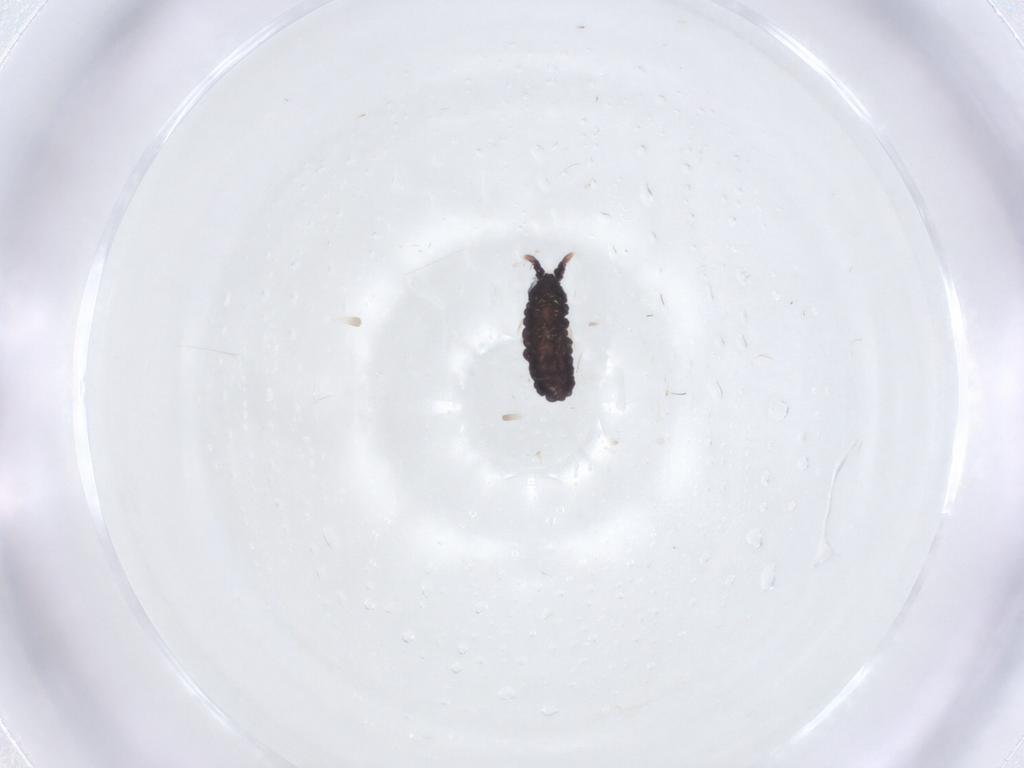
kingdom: Animalia
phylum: Arthropoda
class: Collembola
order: Poduromorpha
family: Neanuridae
